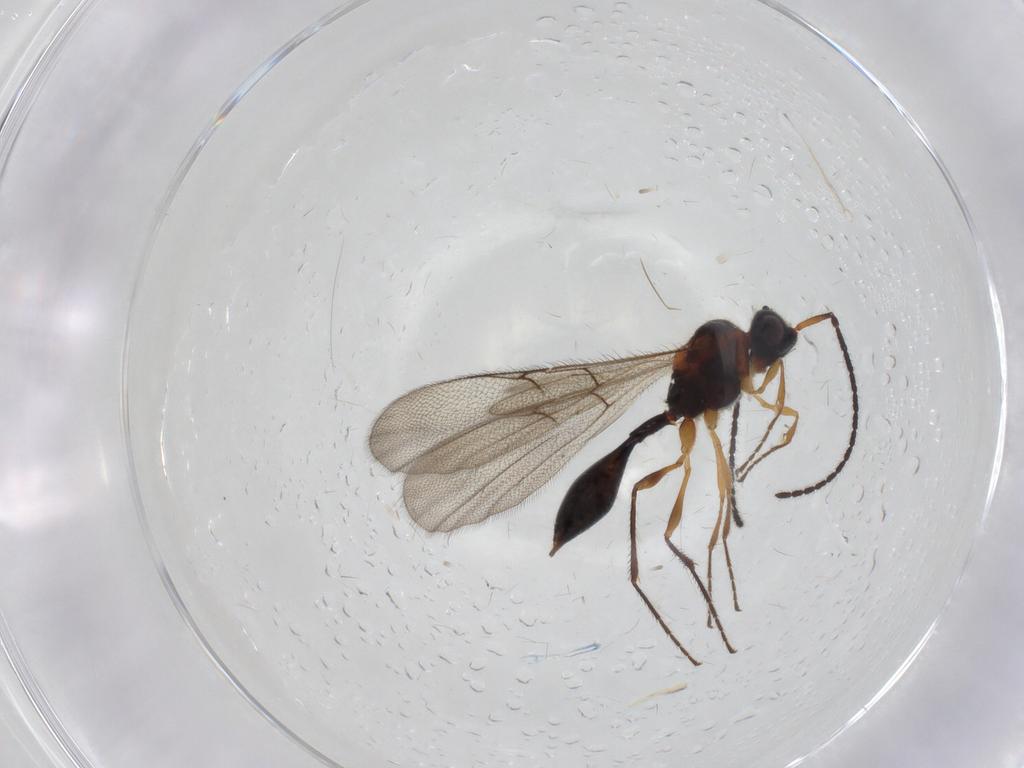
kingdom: Animalia
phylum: Arthropoda
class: Insecta
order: Hymenoptera
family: Diapriidae
